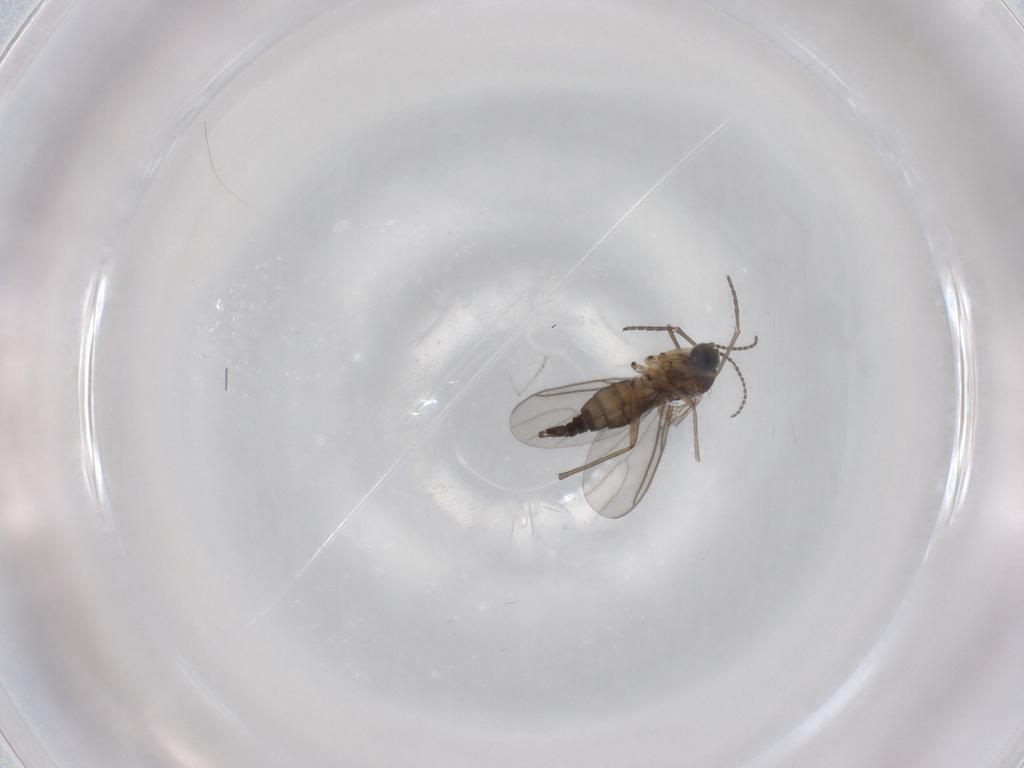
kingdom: Animalia
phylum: Arthropoda
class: Insecta
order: Diptera
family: Sciaridae
